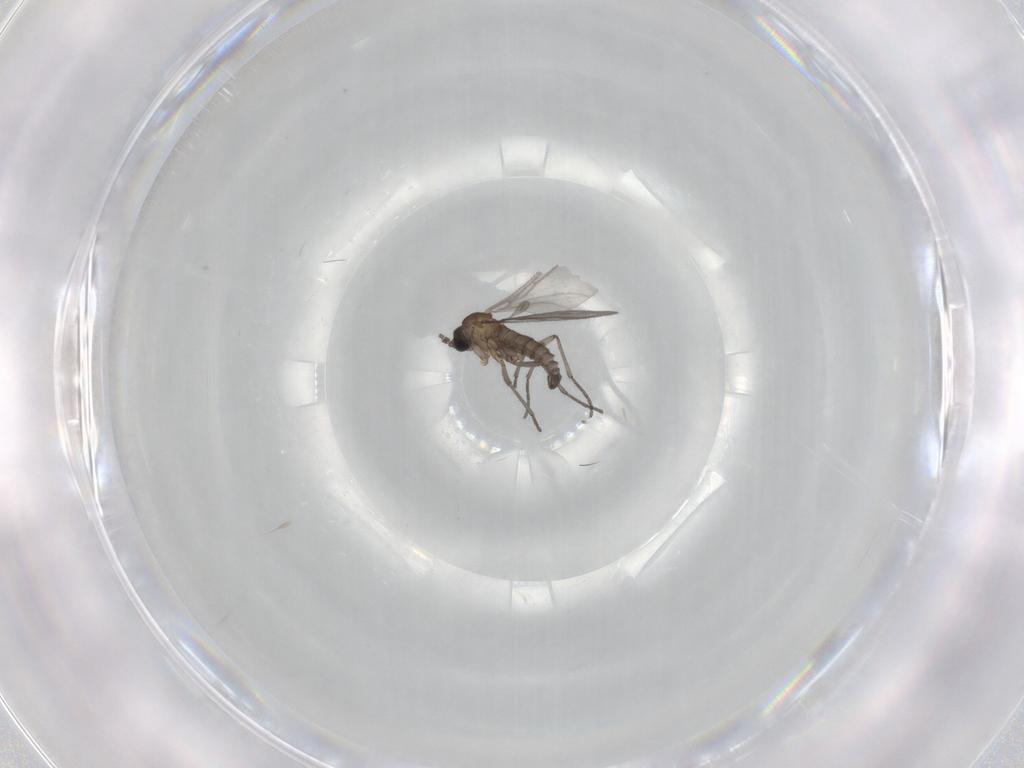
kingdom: Animalia
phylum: Arthropoda
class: Insecta
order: Diptera
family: Sciaridae
